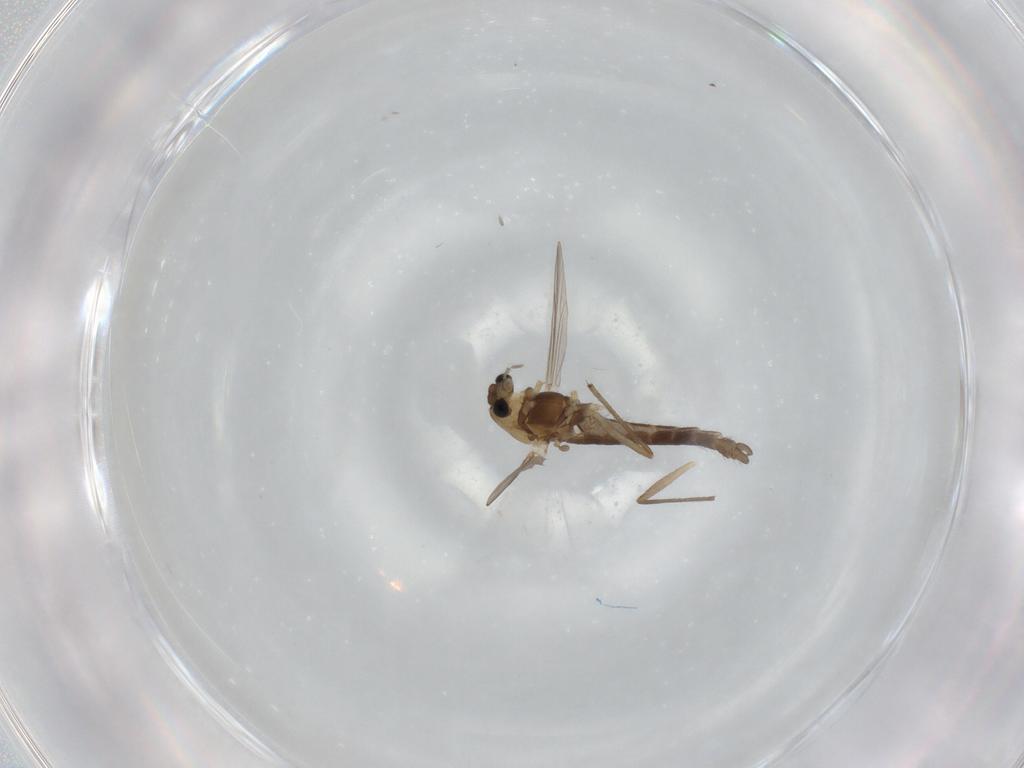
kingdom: Animalia
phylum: Arthropoda
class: Insecta
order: Diptera
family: Chironomidae
